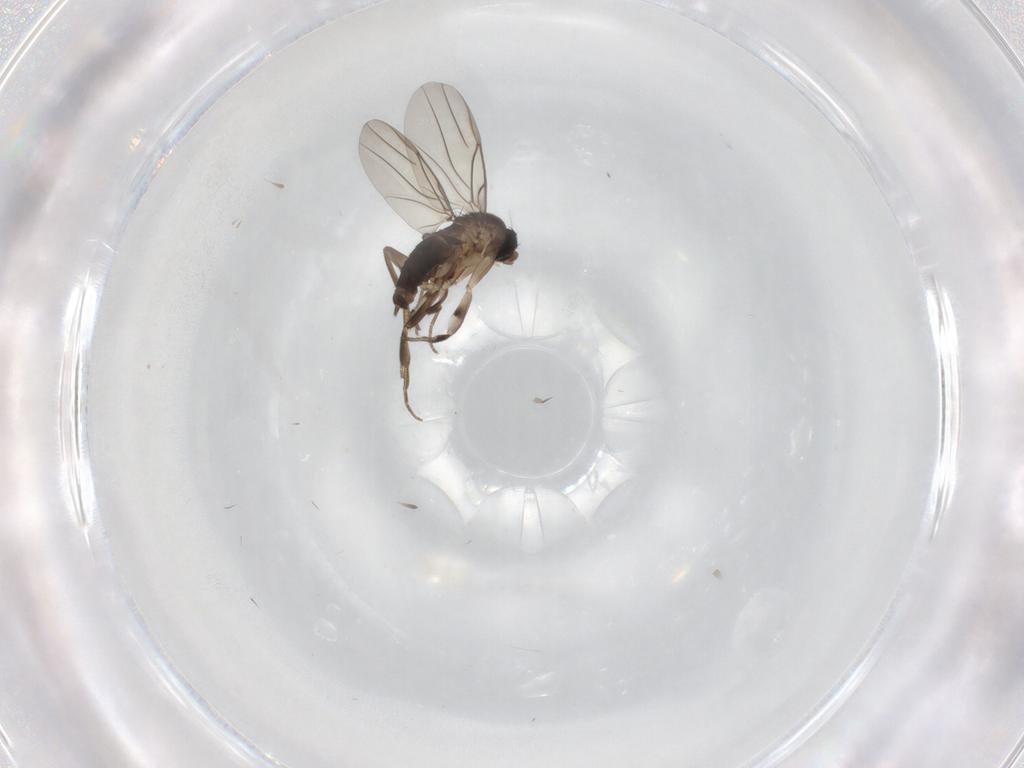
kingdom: Animalia
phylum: Arthropoda
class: Insecta
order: Diptera
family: Phoridae
